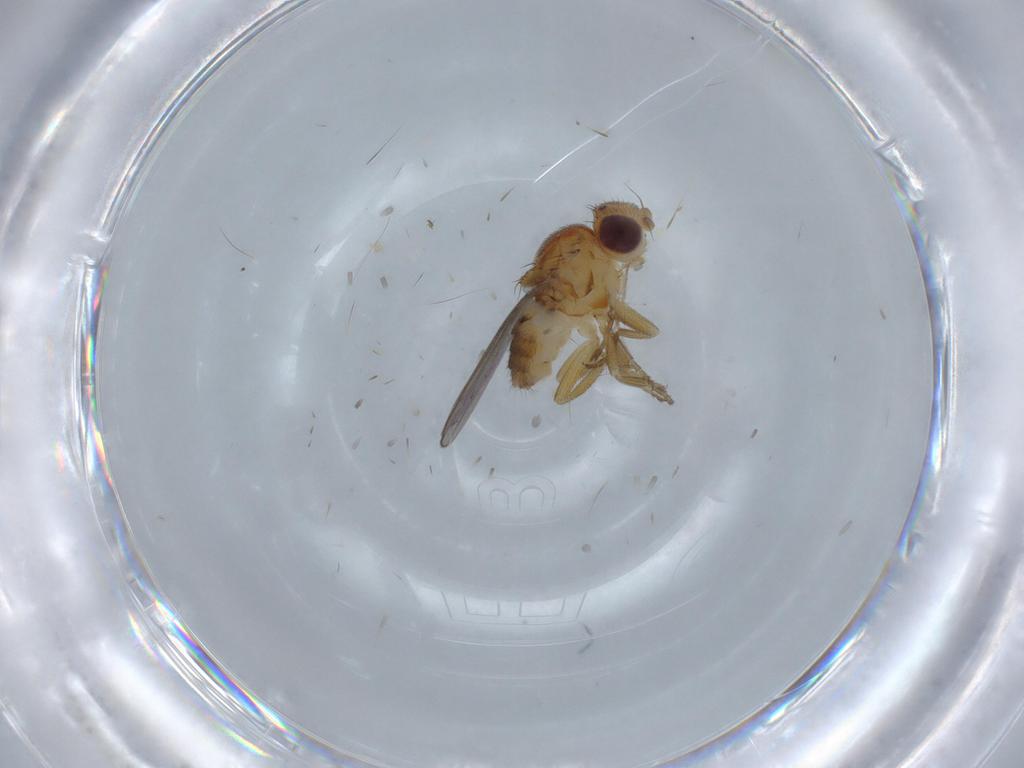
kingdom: Animalia
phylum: Arthropoda
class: Insecta
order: Diptera
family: Chloropidae
